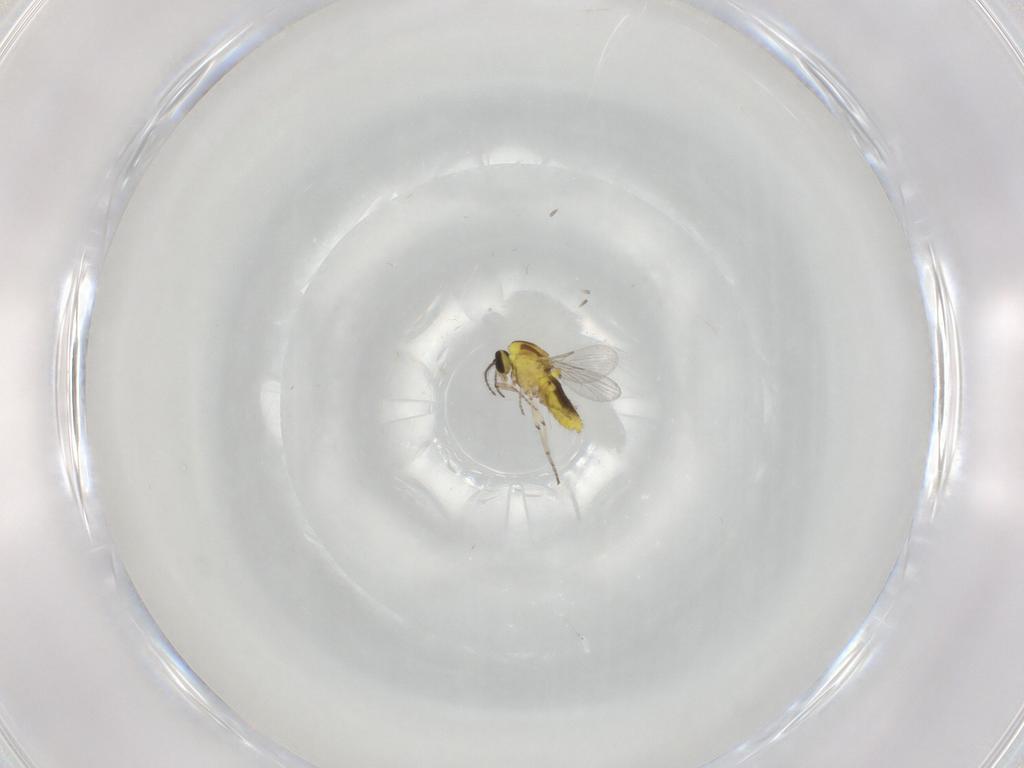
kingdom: Animalia
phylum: Arthropoda
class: Insecta
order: Diptera
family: Ceratopogonidae
